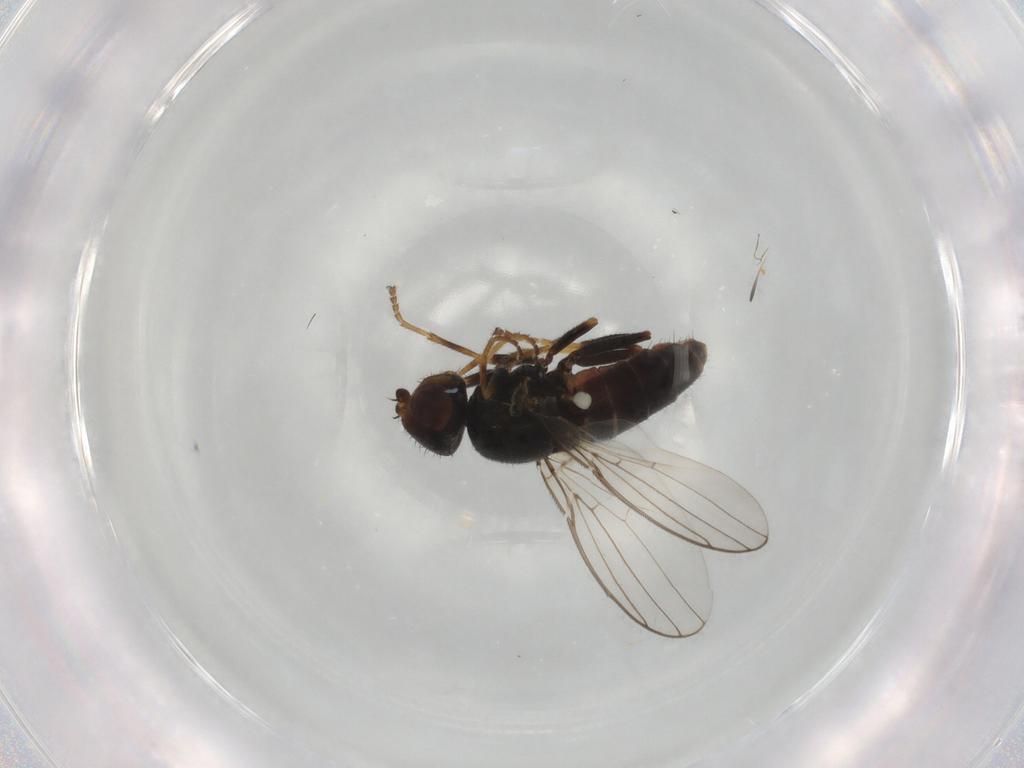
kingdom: Animalia
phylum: Arthropoda
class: Insecta
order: Diptera
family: Chloropidae
